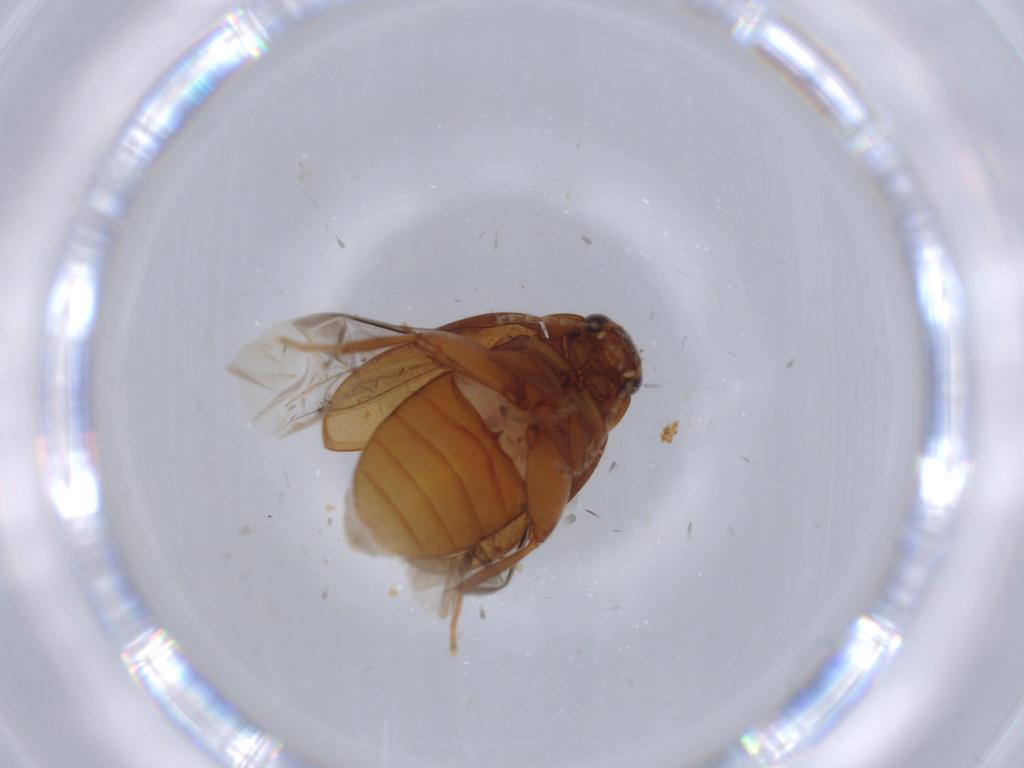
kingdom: Animalia
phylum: Arthropoda
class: Insecta
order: Coleoptera
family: Scirtidae
